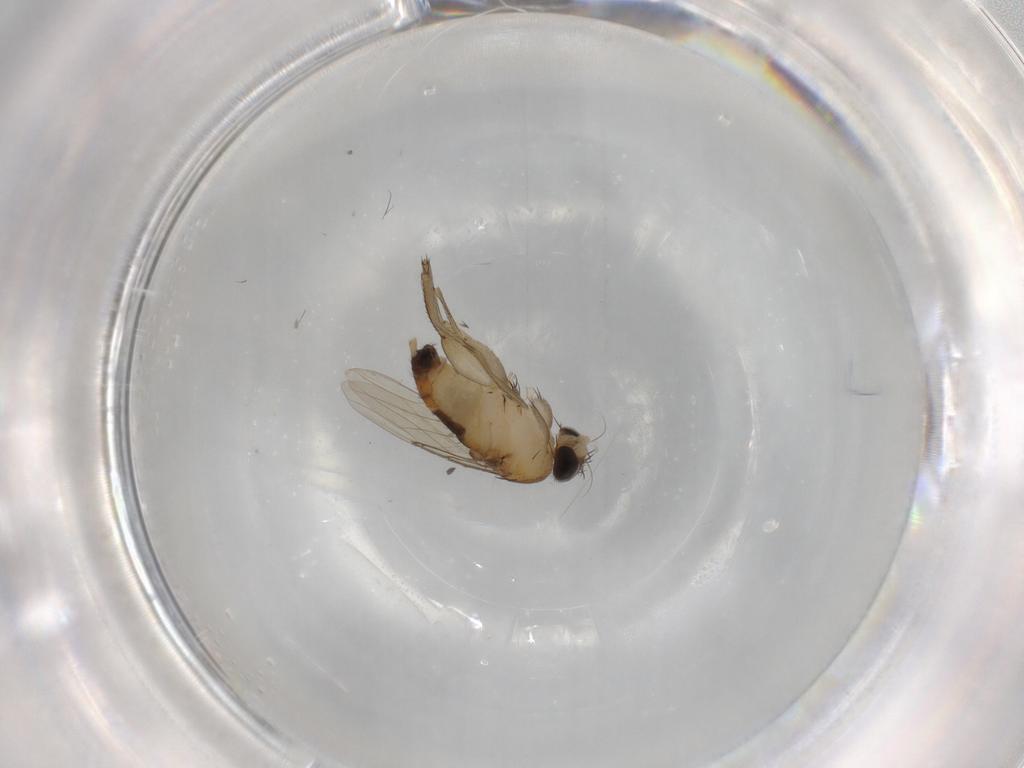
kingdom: Animalia
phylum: Arthropoda
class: Insecta
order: Diptera
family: Phoridae
